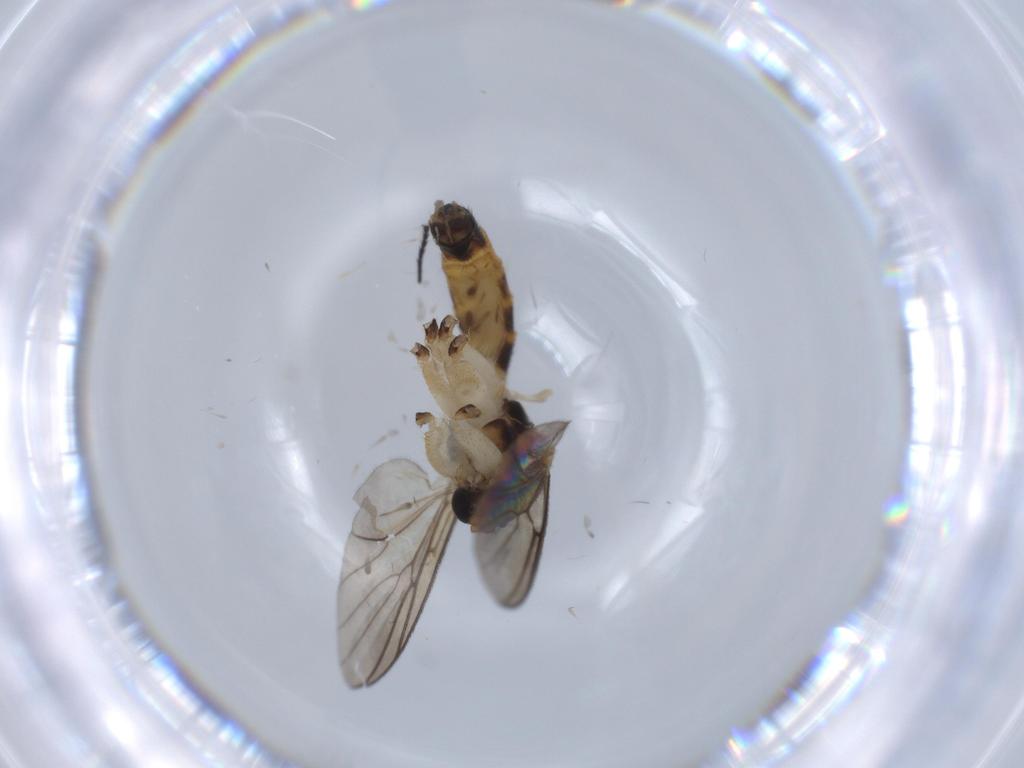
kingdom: Animalia
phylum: Arthropoda
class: Insecta
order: Diptera
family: Mycetophilidae
